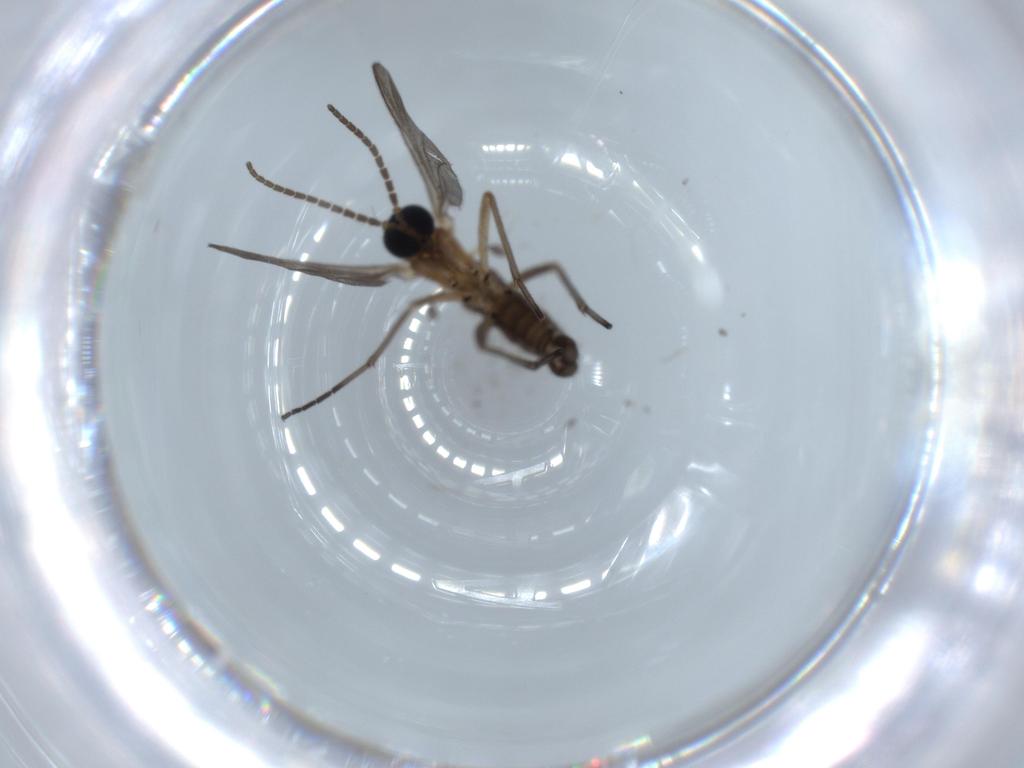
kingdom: Animalia
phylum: Arthropoda
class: Insecta
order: Diptera
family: Sciaridae
